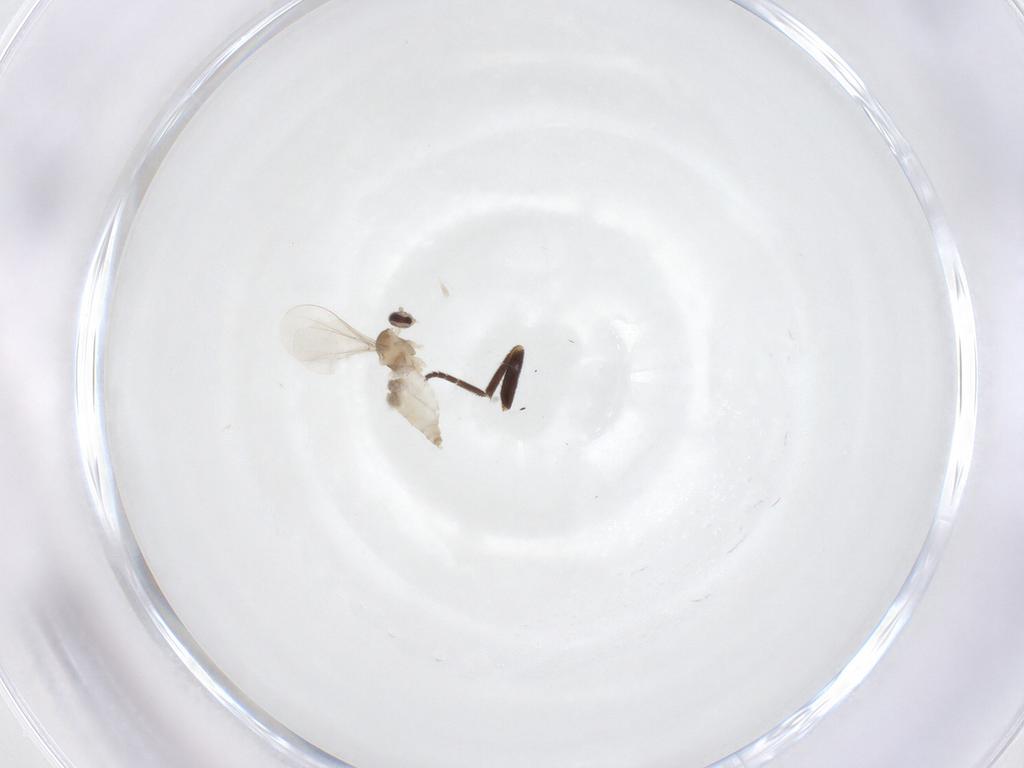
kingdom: Animalia
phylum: Arthropoda
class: Insecta
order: Diptera
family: Cecidomyiidae
